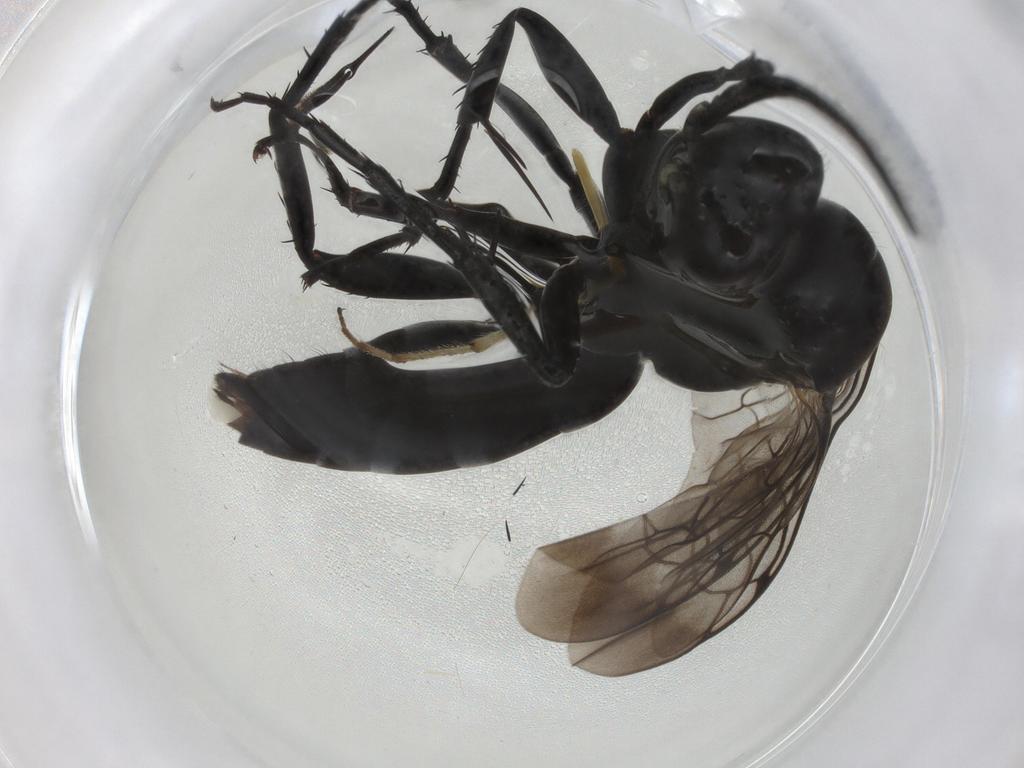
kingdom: Animalia
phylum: Arthropoda
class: Insecta
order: Hymenoptera
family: Pompilidae
